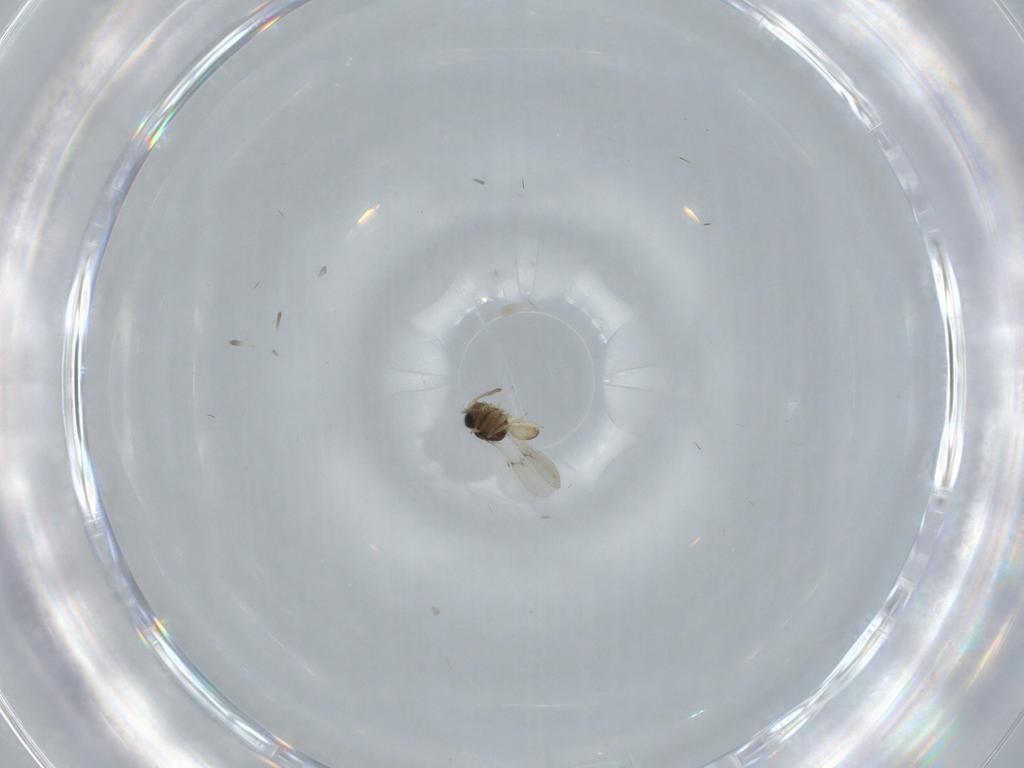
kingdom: Animalia
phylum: Arthropoda
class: Insecta
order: Hymenoptera
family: Scelionidae
